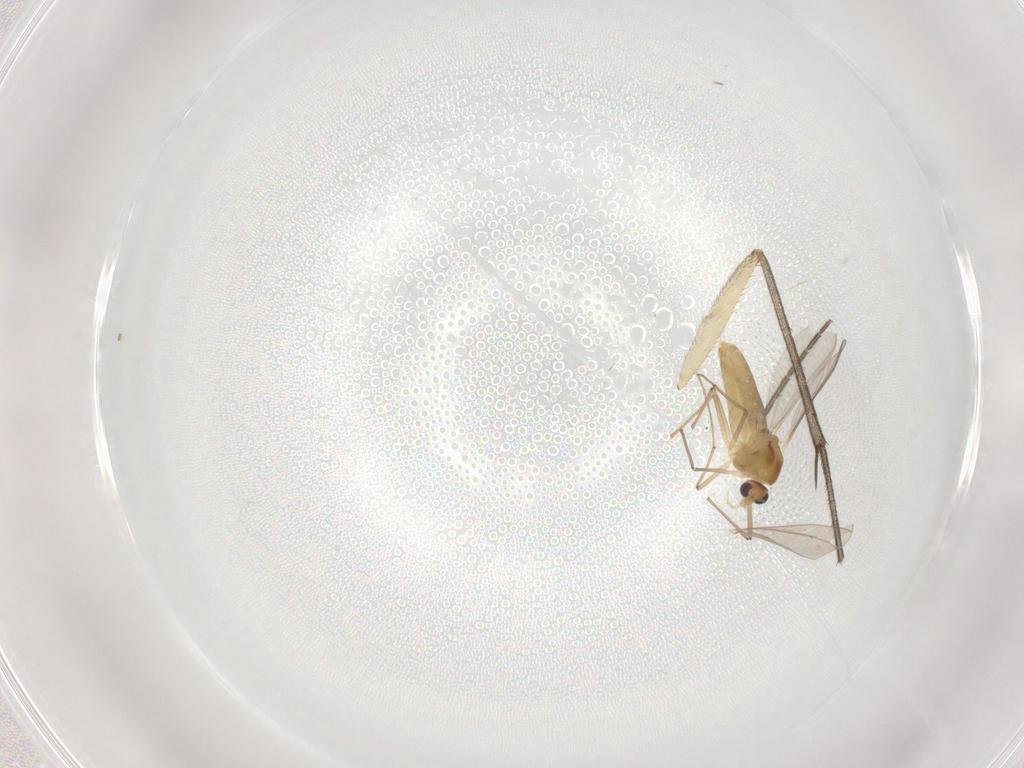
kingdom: Animalia
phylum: Arthropoda
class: Insecta
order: Diptera
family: Mycetophilidae
